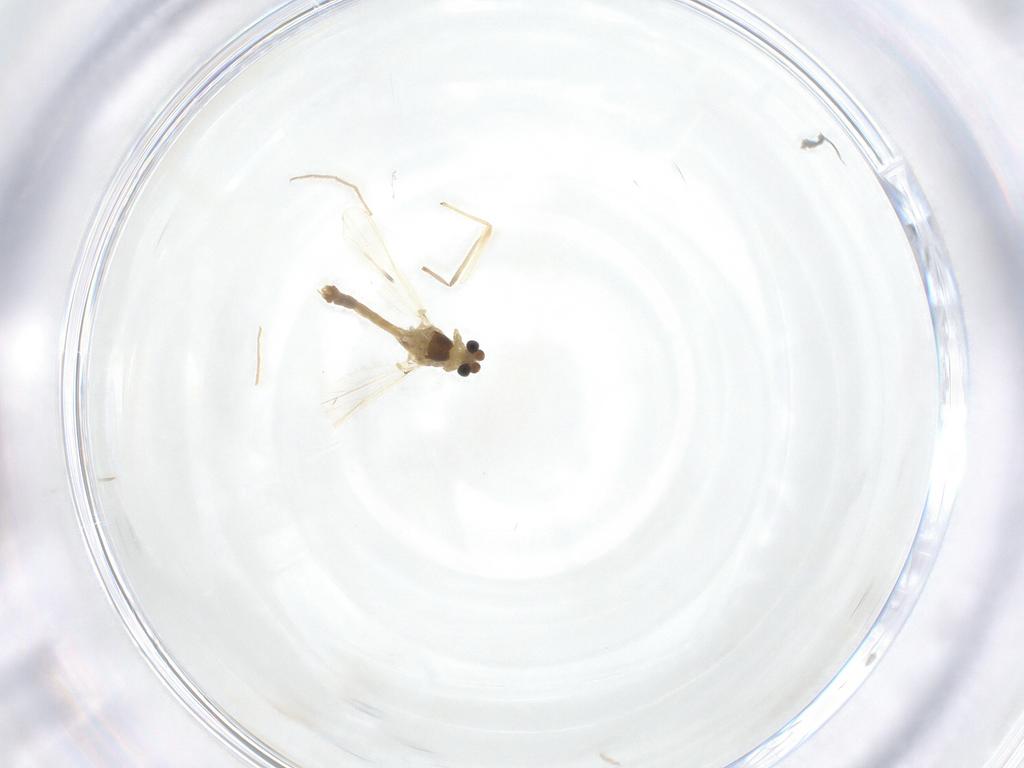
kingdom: Animalia
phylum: Arthropoda
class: Insecta
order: Diptera
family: Chironomidae
